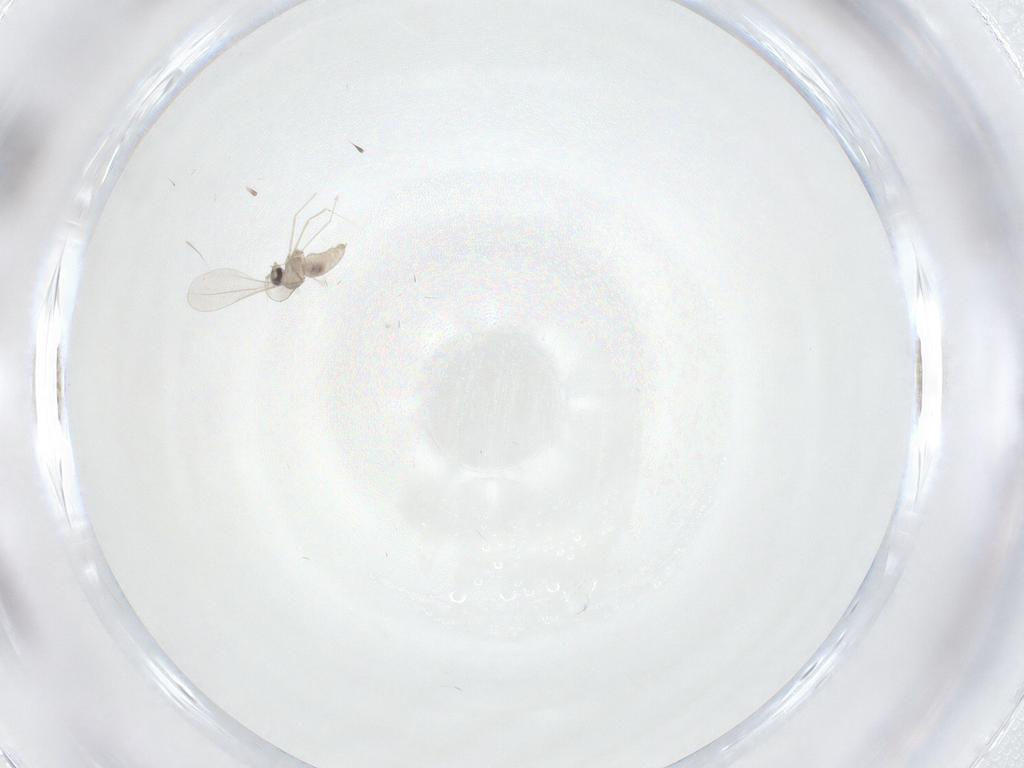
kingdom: Animalia
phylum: Arthropoda
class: Insecta
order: Diptera
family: Cecidomyiidae
